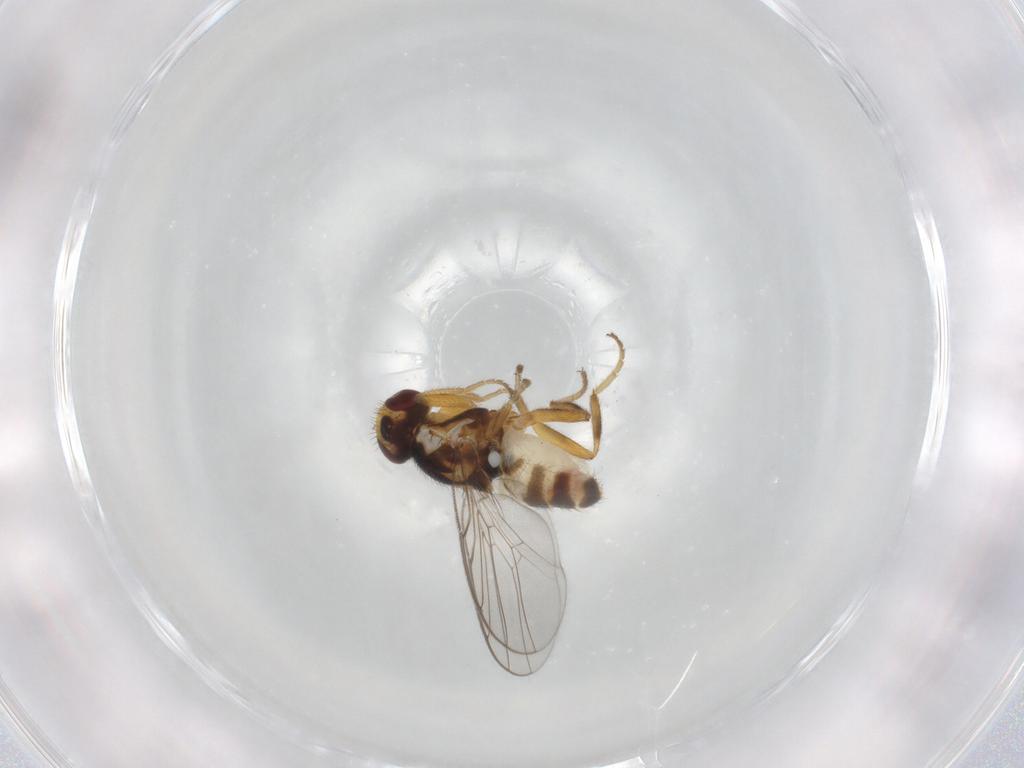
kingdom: Animalia
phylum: Arthropoda
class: Insecta
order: Diptera
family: Chloropidae
